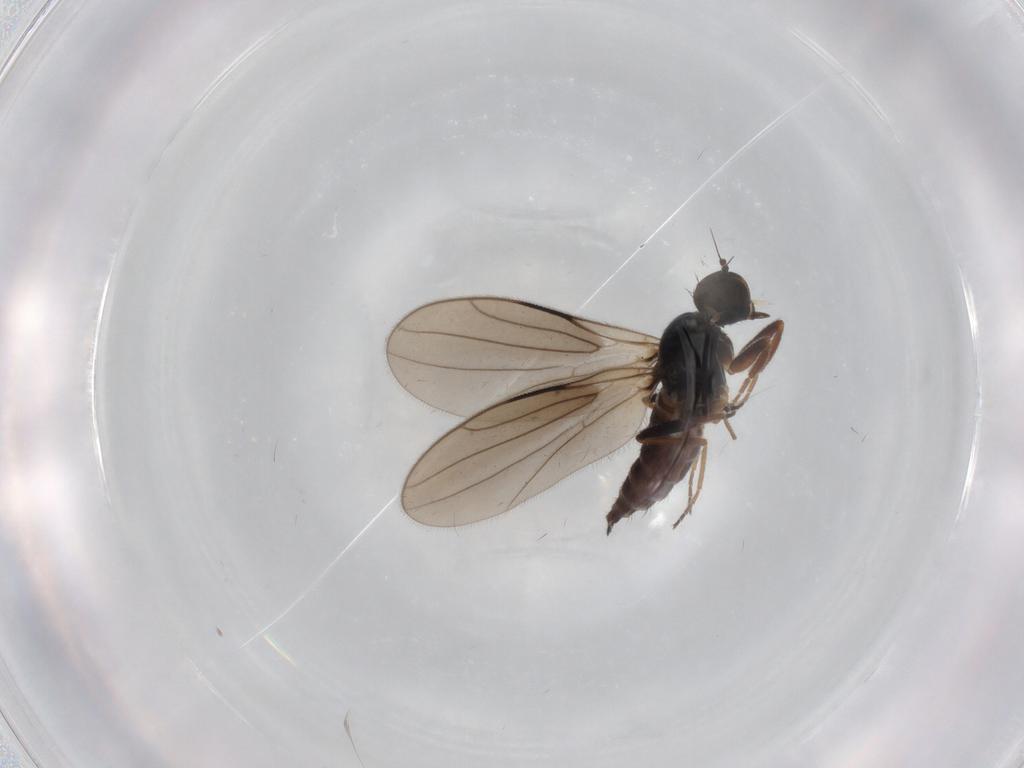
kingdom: Animalia
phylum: Arthropoda
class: Insecta
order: Diptera
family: Hybotidae
